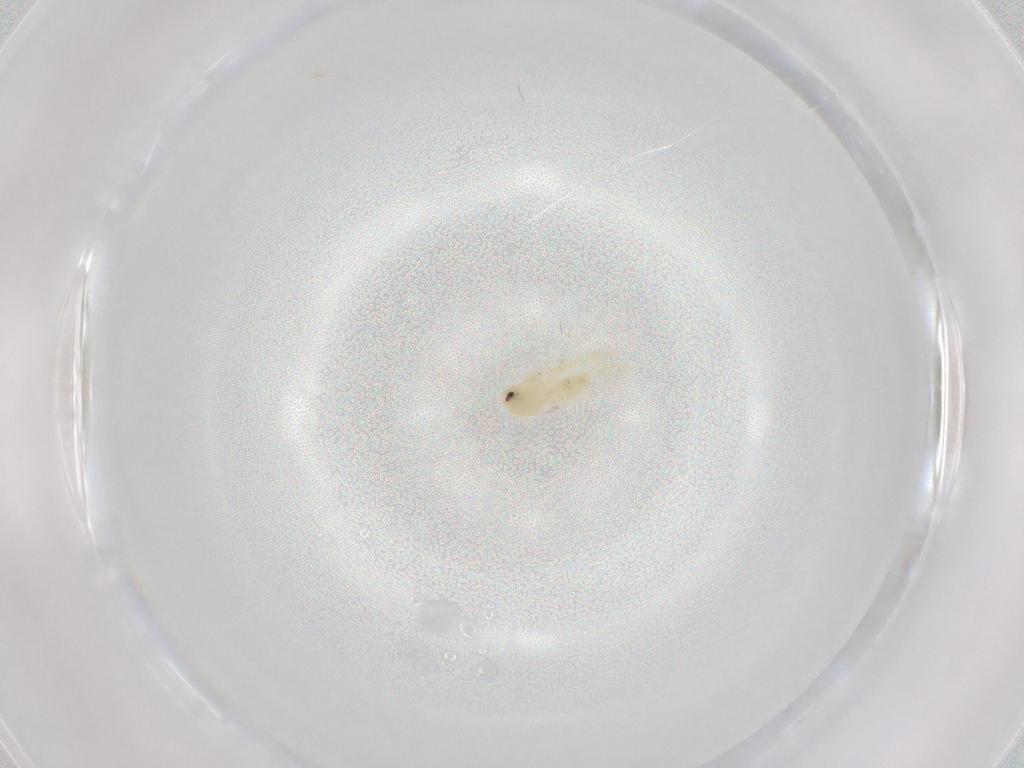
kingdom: Animalia
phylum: Arthropoda
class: Insecta
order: Hemiptera
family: Aleyrodidae
